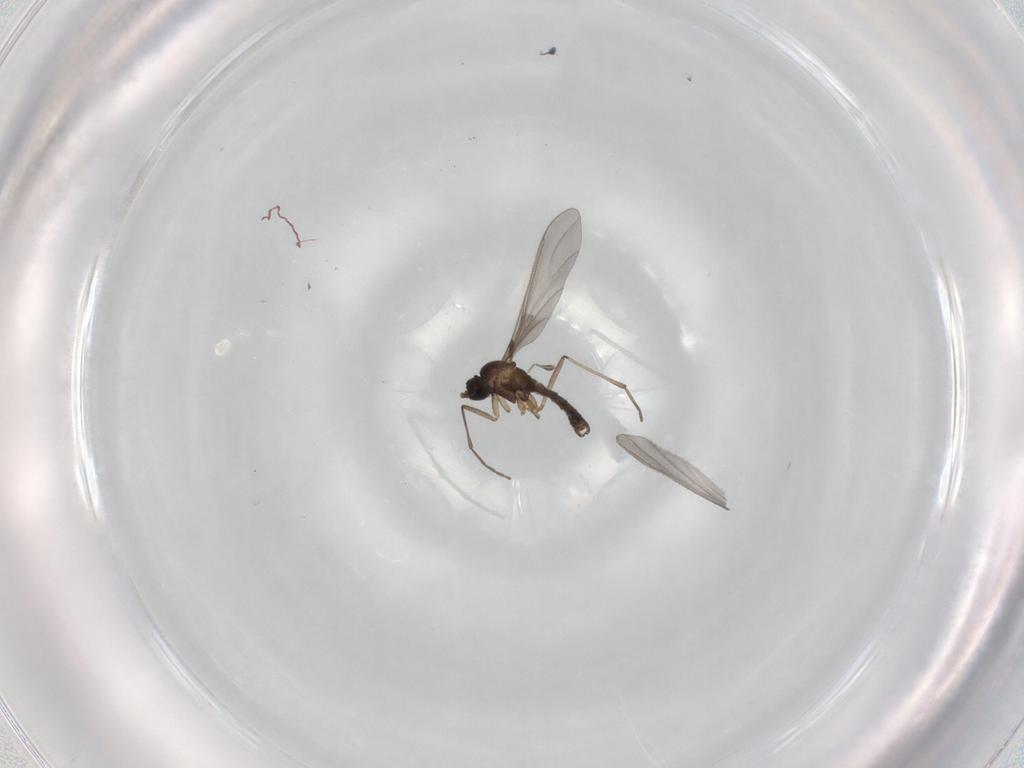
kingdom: Animalia
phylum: Arthropoda
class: Insecta
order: Diptera
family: Sciaridae
